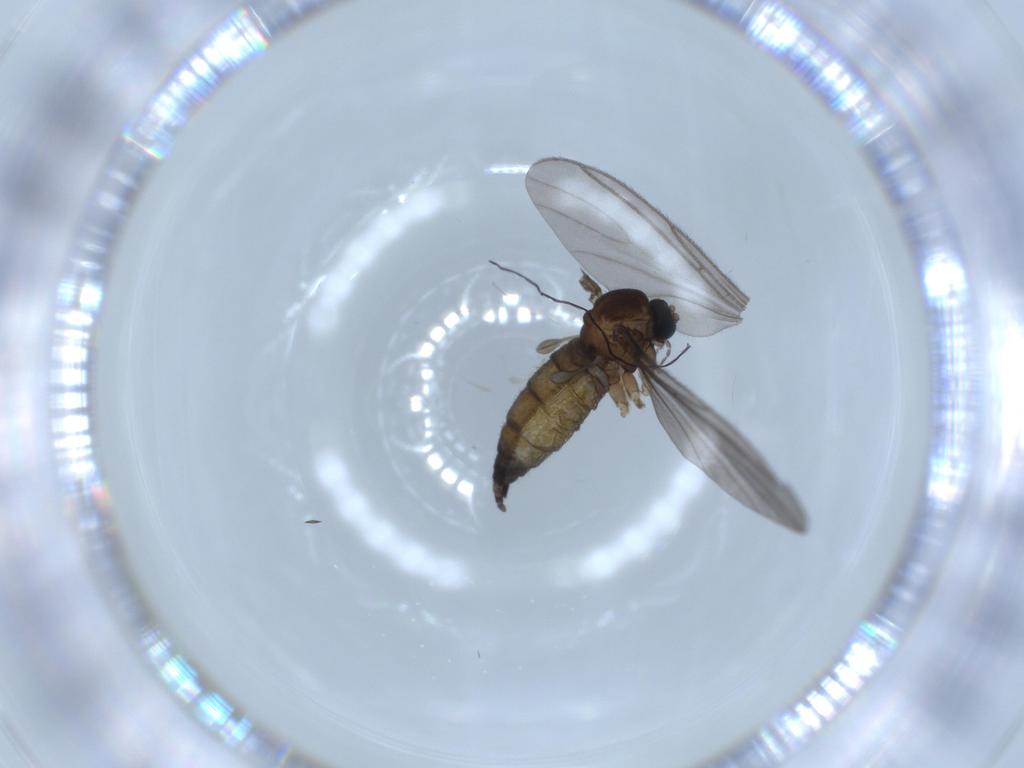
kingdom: Animalia
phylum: Arthropoda
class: Insecta
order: Diptera
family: Sciaridae
